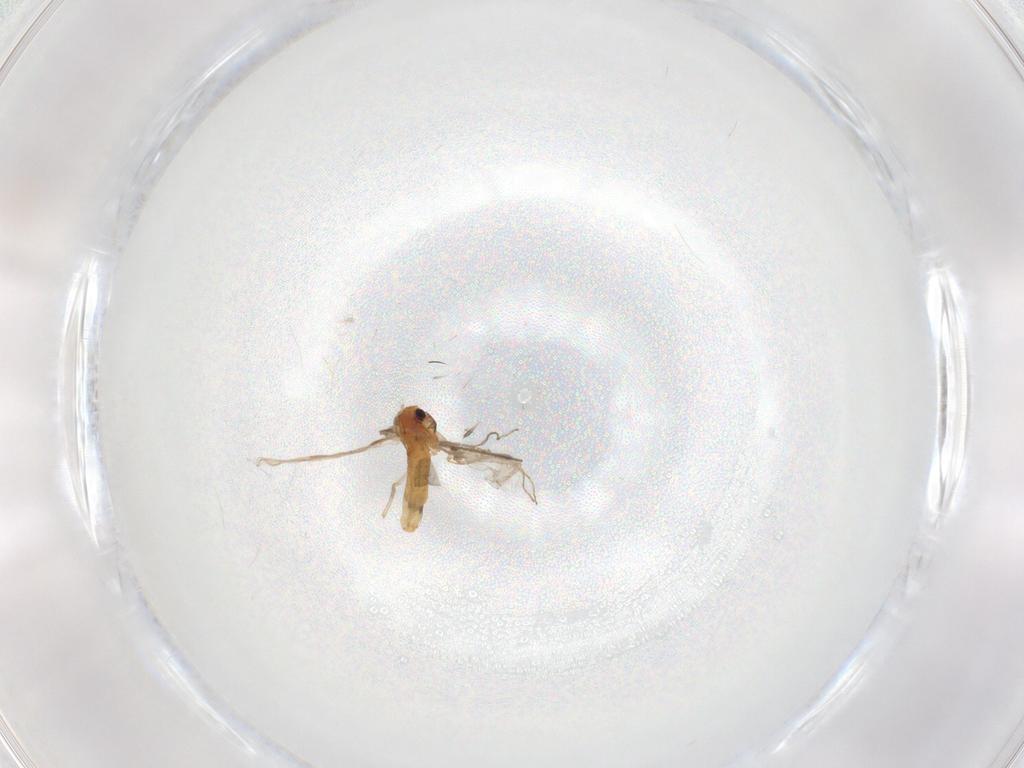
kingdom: Animalia
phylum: Arthropoda
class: Insecta
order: Diptera
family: Chironomidae
